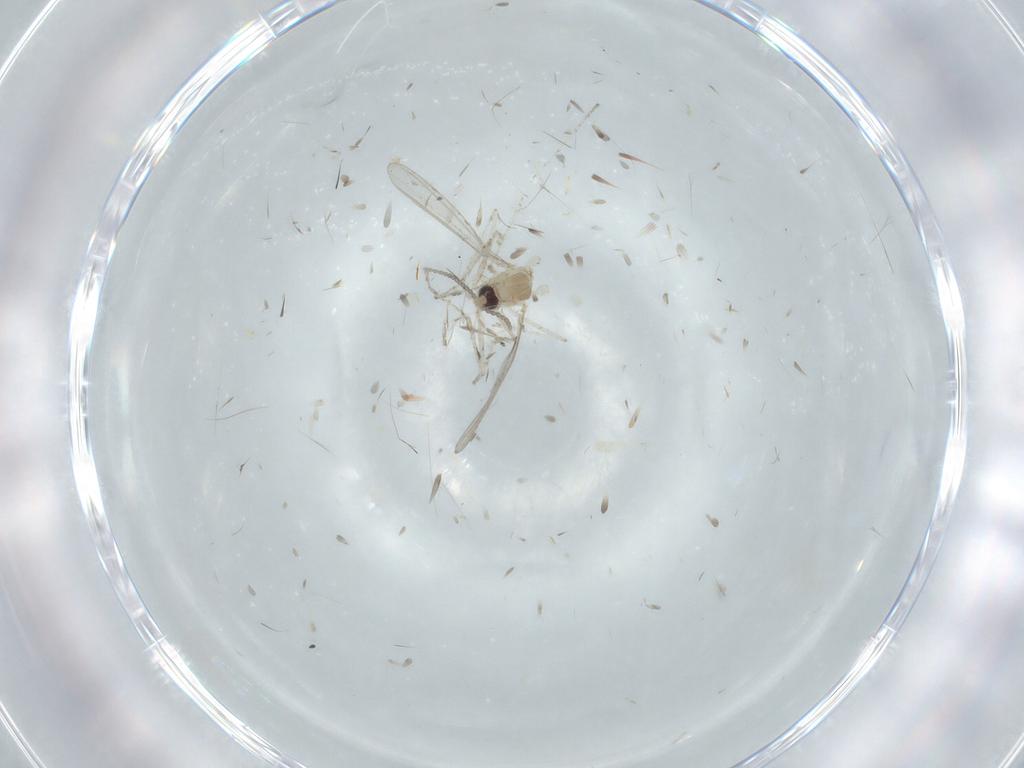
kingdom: Animalia
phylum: Arthropoda
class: Insecta
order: Diptera
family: Cecidomyiidae
